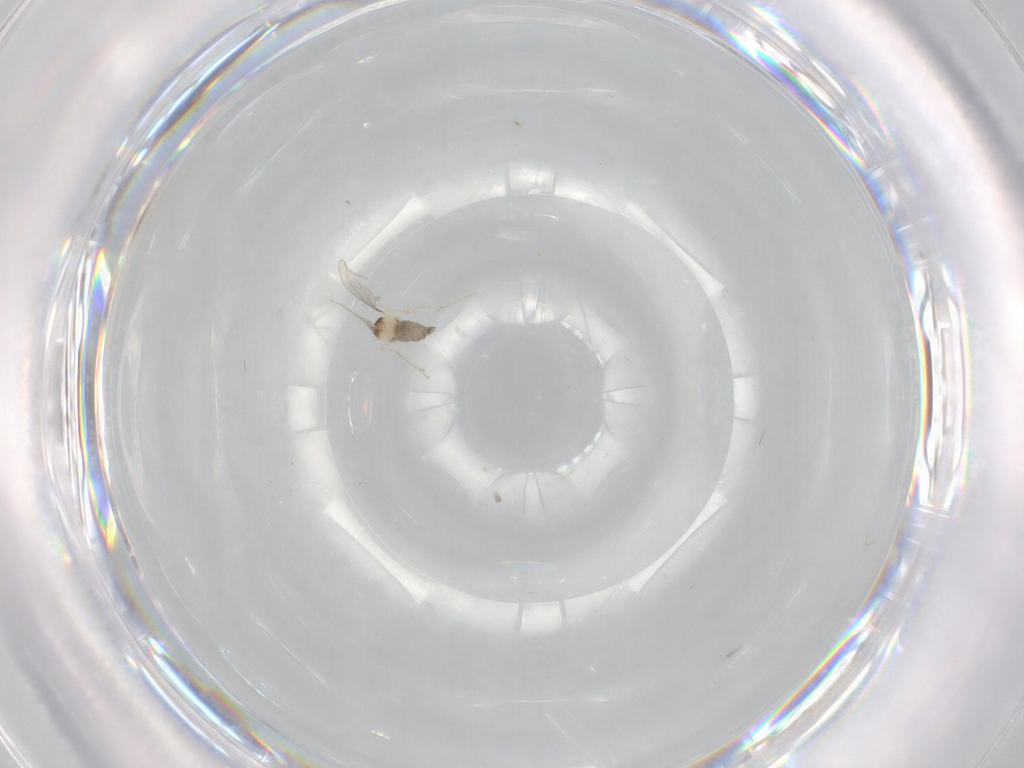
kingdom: Animalia
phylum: Arthropoda
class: Insecta
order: Diptera
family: Cecidomyiidae
